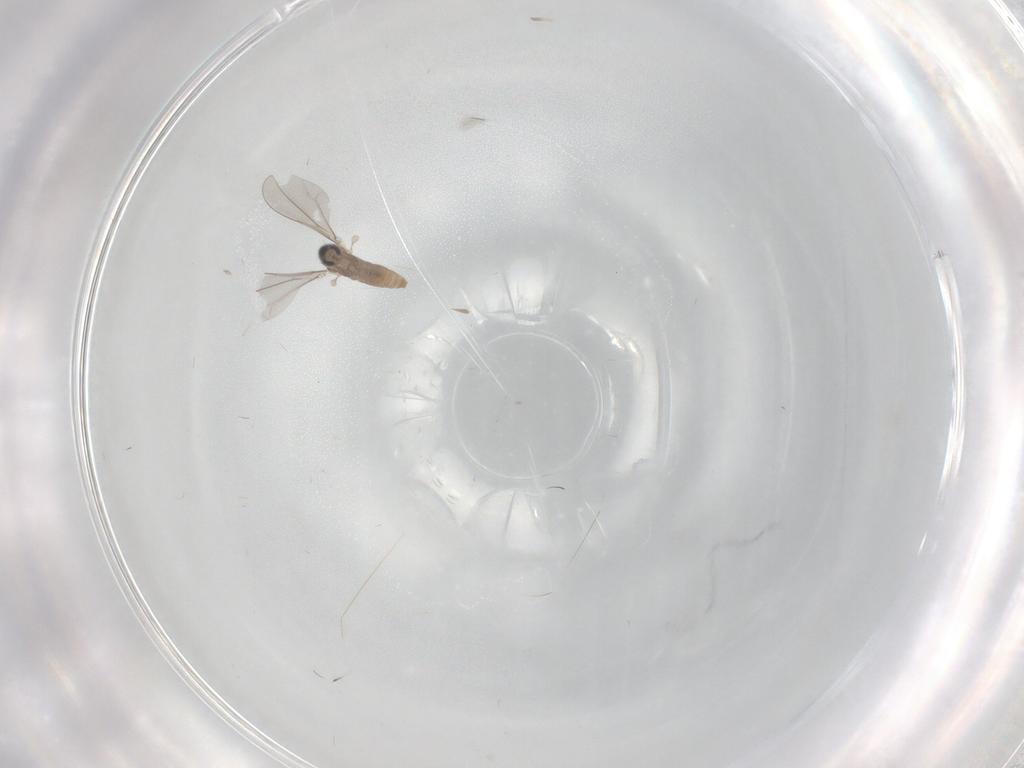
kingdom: Animalia
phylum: Arthropoda
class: Insecta
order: Diptera
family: Cecidomyiidae
